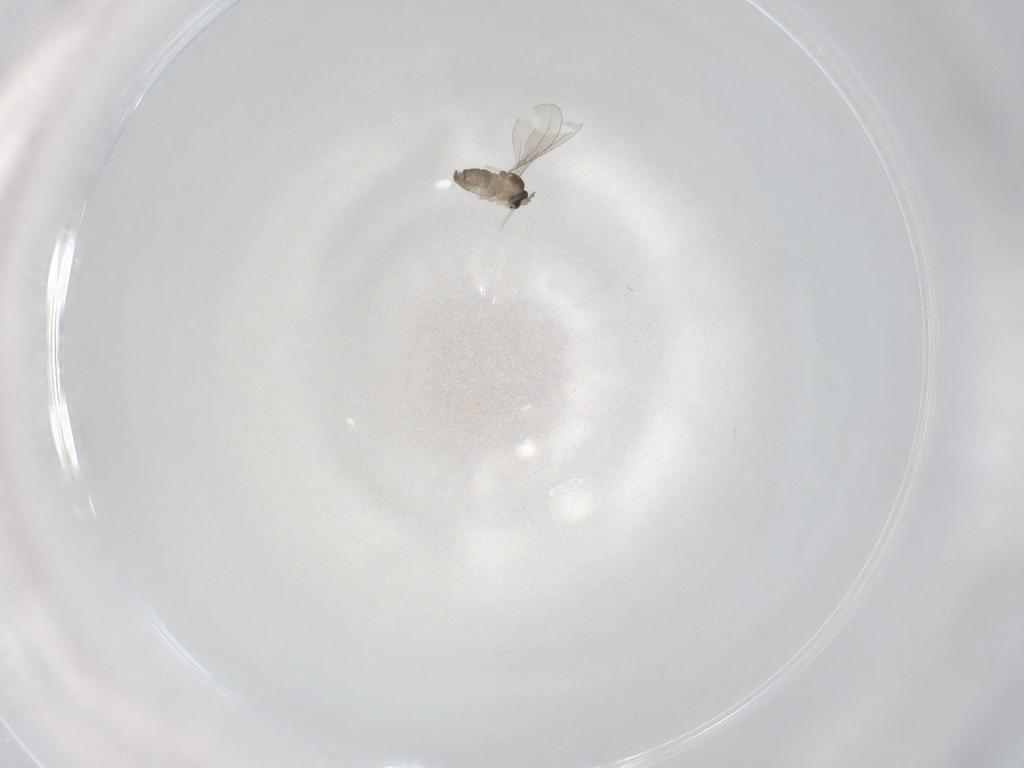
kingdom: Animalia
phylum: Arthropoda
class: Insecta
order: Diptera
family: Cecidomyiidae
